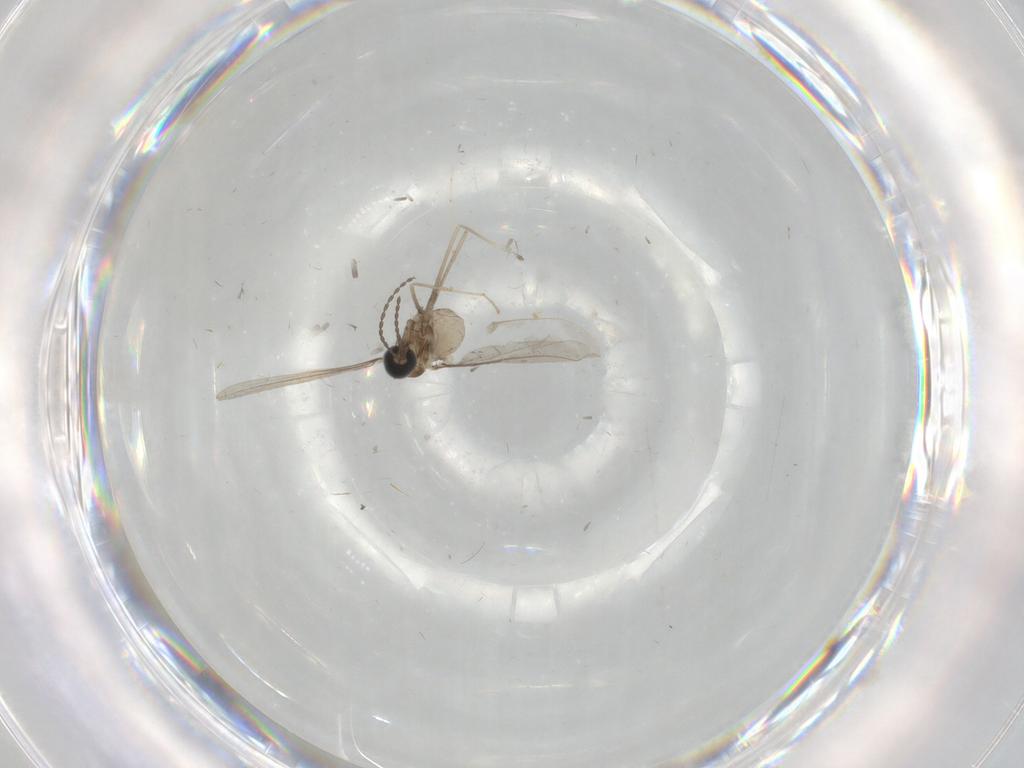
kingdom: Animalia
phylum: Arthropoda
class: Insecta
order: Diptera
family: Cecidomyiidae
